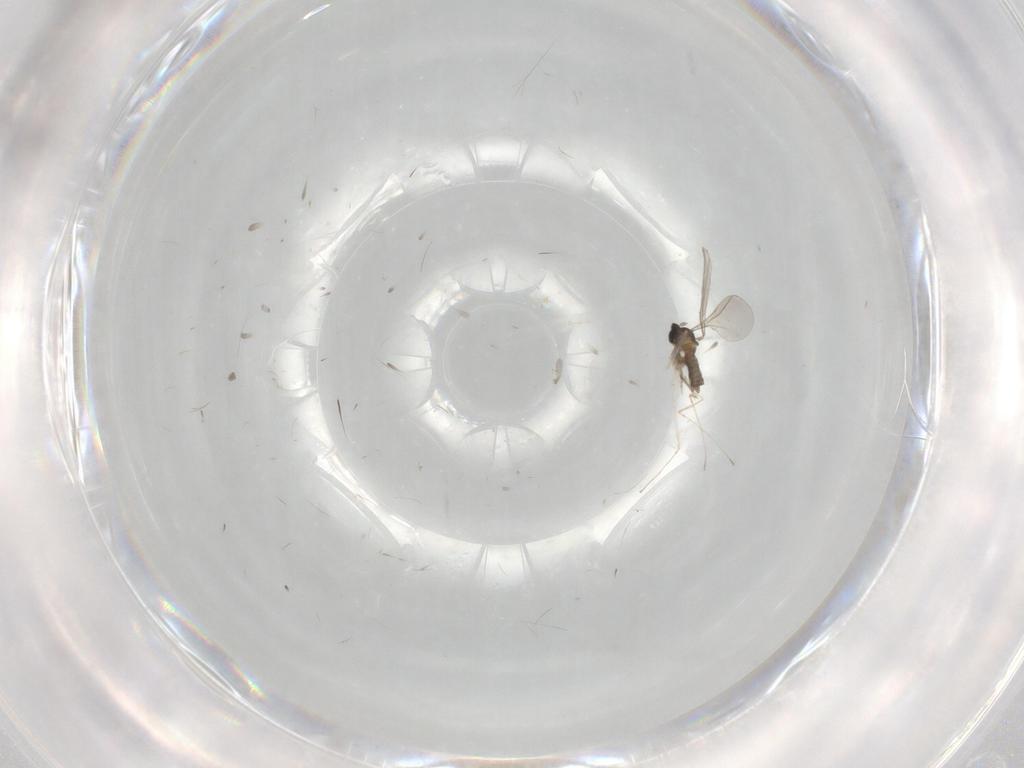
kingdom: Animalia
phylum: Arthropoda
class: Insecta
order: Diptera
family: Cecidomyiidae
